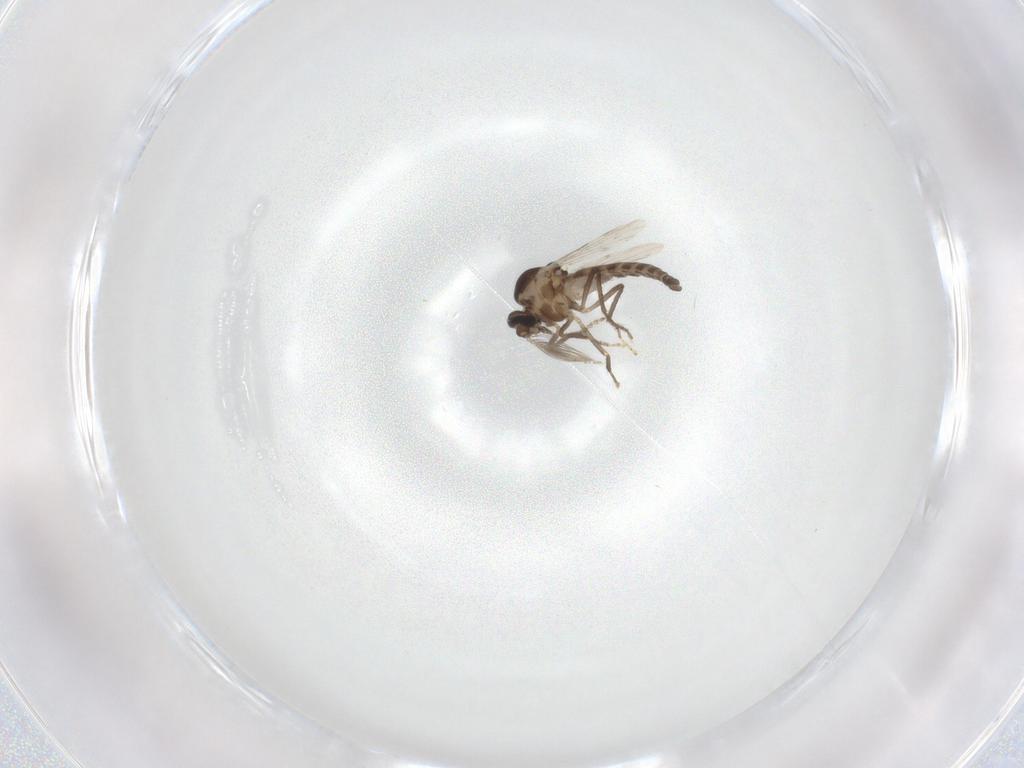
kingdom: Animalia
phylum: Arthropoda
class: Insecta
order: Diptera
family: Ceratopogonidae
